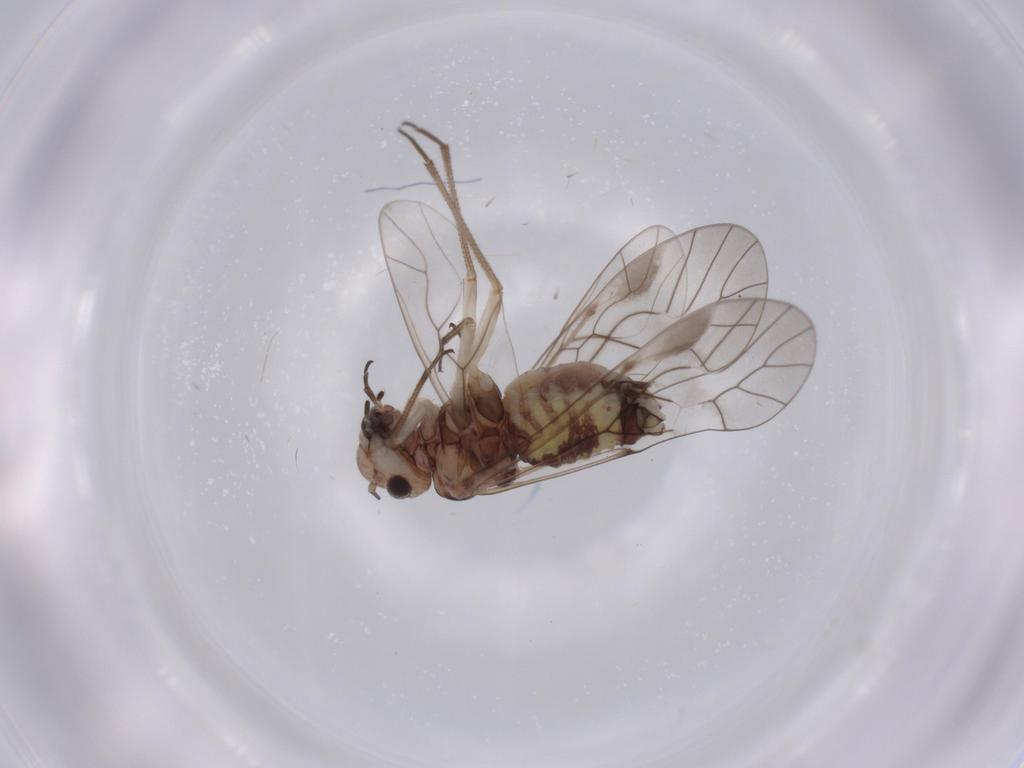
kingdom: Animalia
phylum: Arthropoda
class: Insecta
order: Psocodea
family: Caeciliusidae
